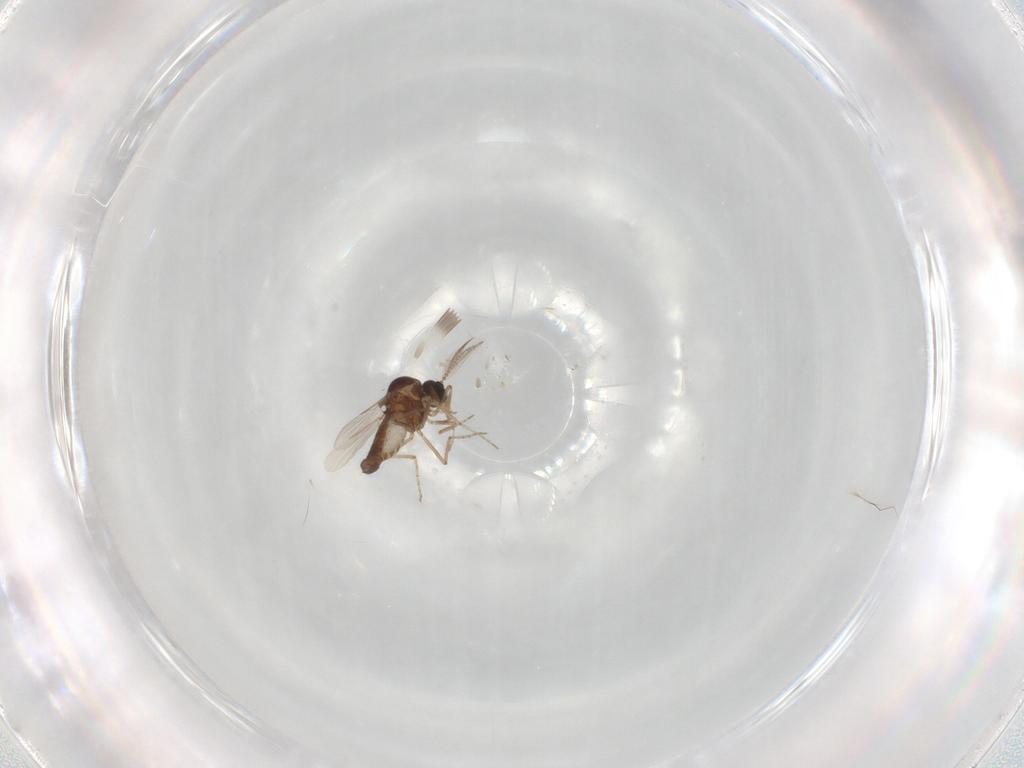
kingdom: Animalia
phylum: Arthropoda
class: Insecta
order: Diptera
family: Ceratopogonidae
